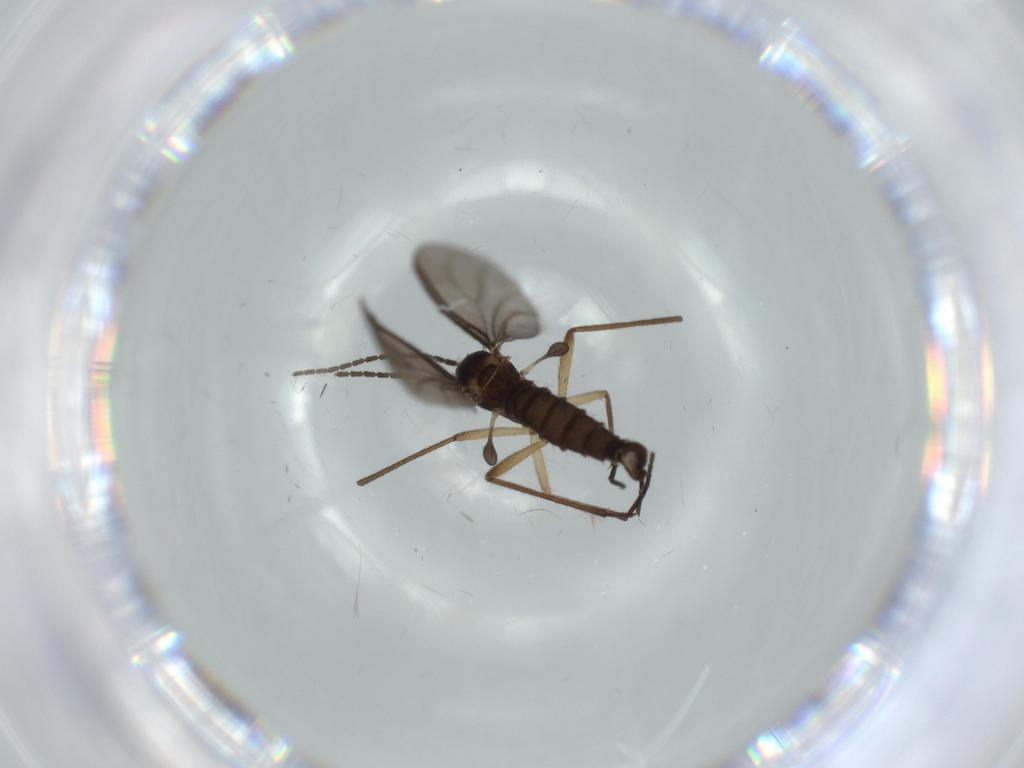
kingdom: Animalia
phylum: Arthropoda
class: Insecta
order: Diptera
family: Sciaridae
